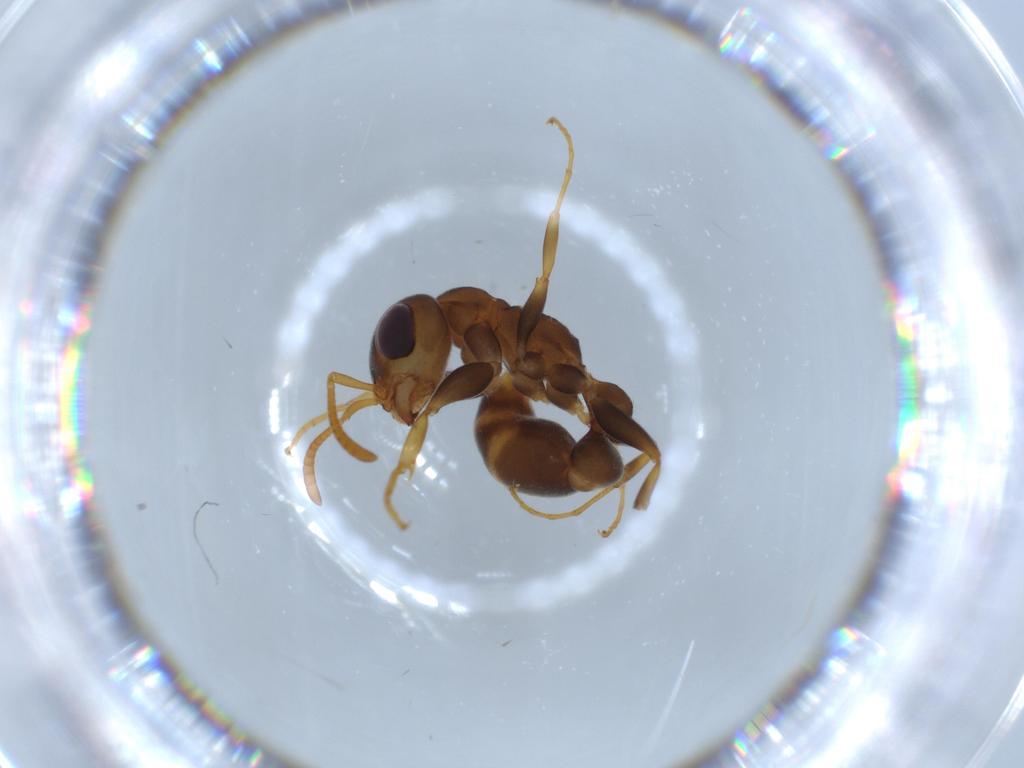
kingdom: Animalia
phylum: Arthropoda
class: Insecta
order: Hymenoptera
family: Formicidae
